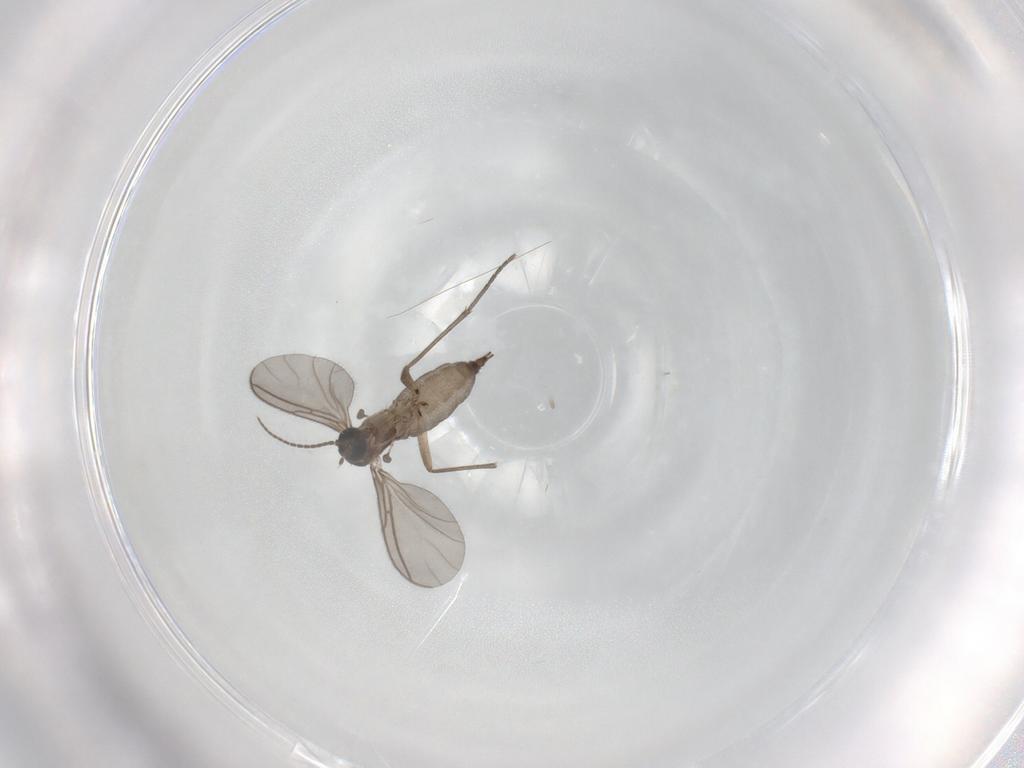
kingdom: Animalia
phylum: Arthropoda
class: Insecta
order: Diptera
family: Sciaridae
